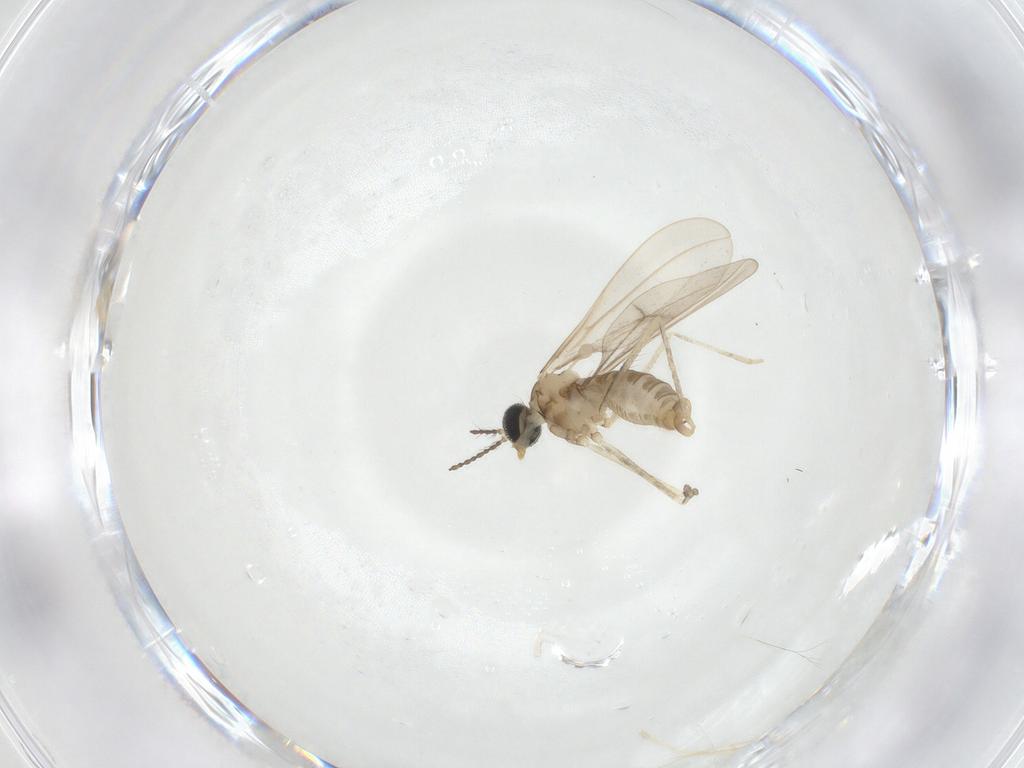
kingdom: Animalia
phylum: Arthropoda
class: Insecta
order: Diptera
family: Cecidomyiidae
